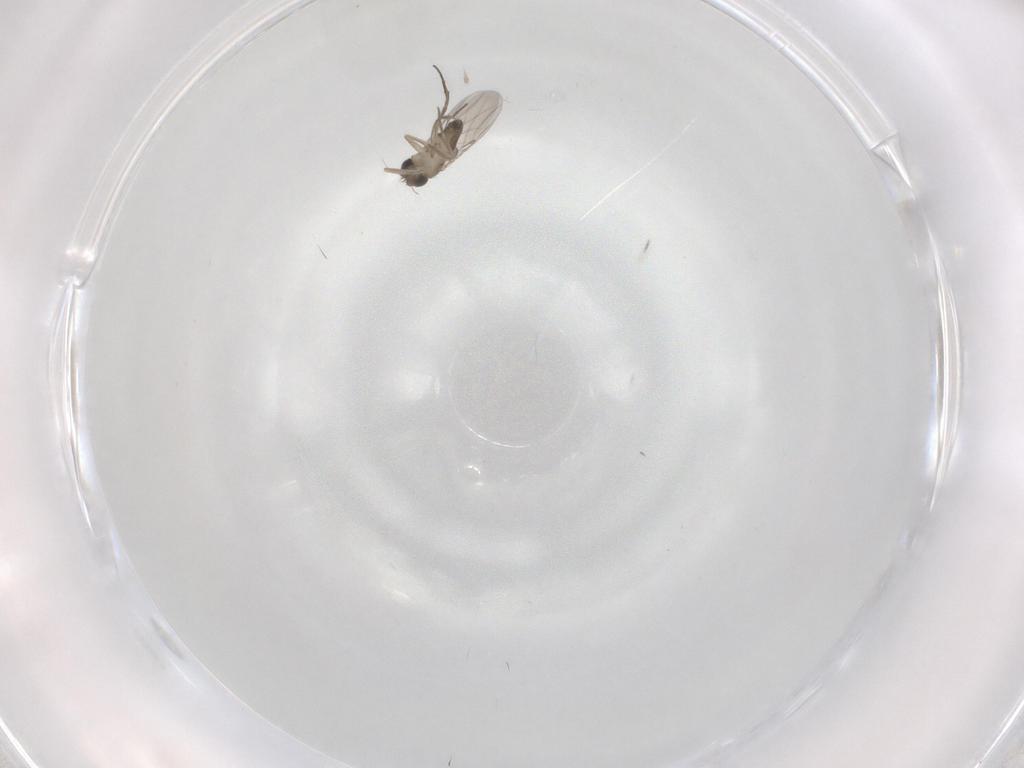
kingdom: Animalia
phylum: Arthropoda
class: Insecta
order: Diptera
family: Phoridae
